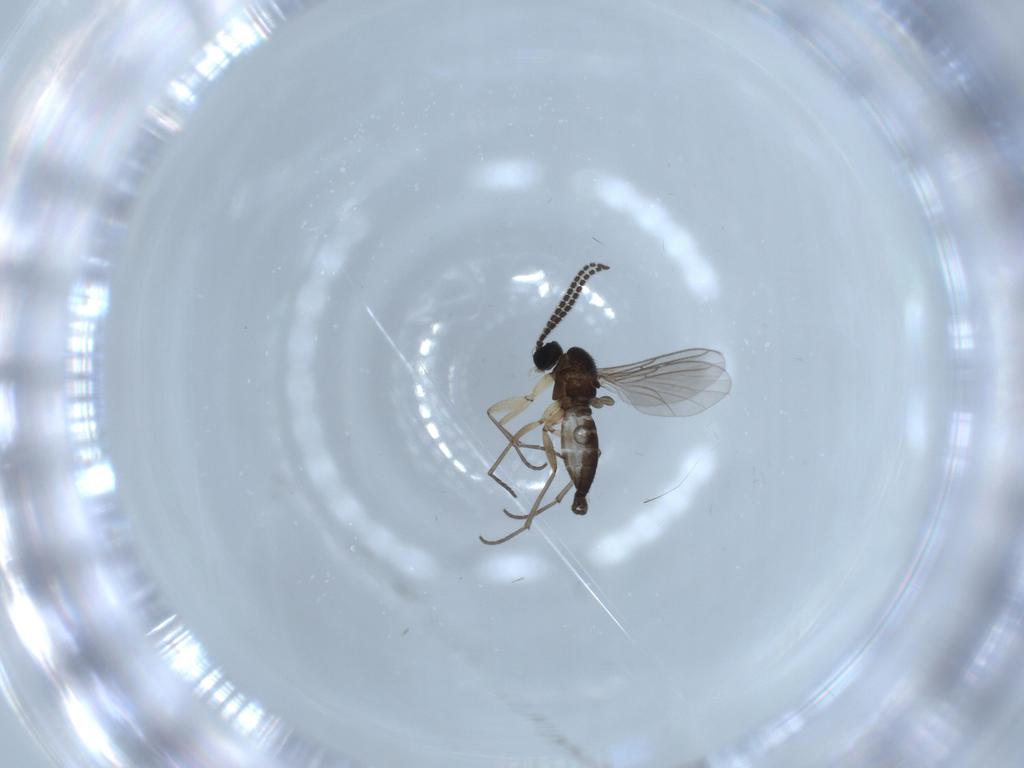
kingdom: Animalia
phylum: Arthropoda
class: Insecta
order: Diptera
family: Sciaridae
